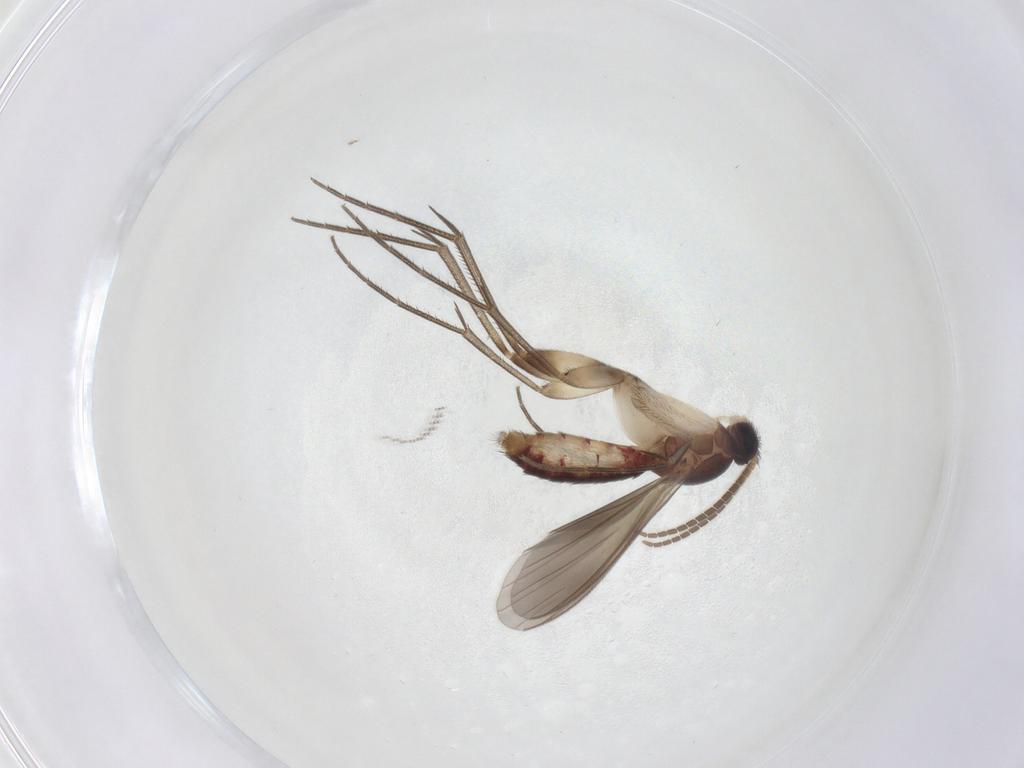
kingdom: Animalia
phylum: Arthropoda
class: Insecta
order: Diptera
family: Mycetophilidae
